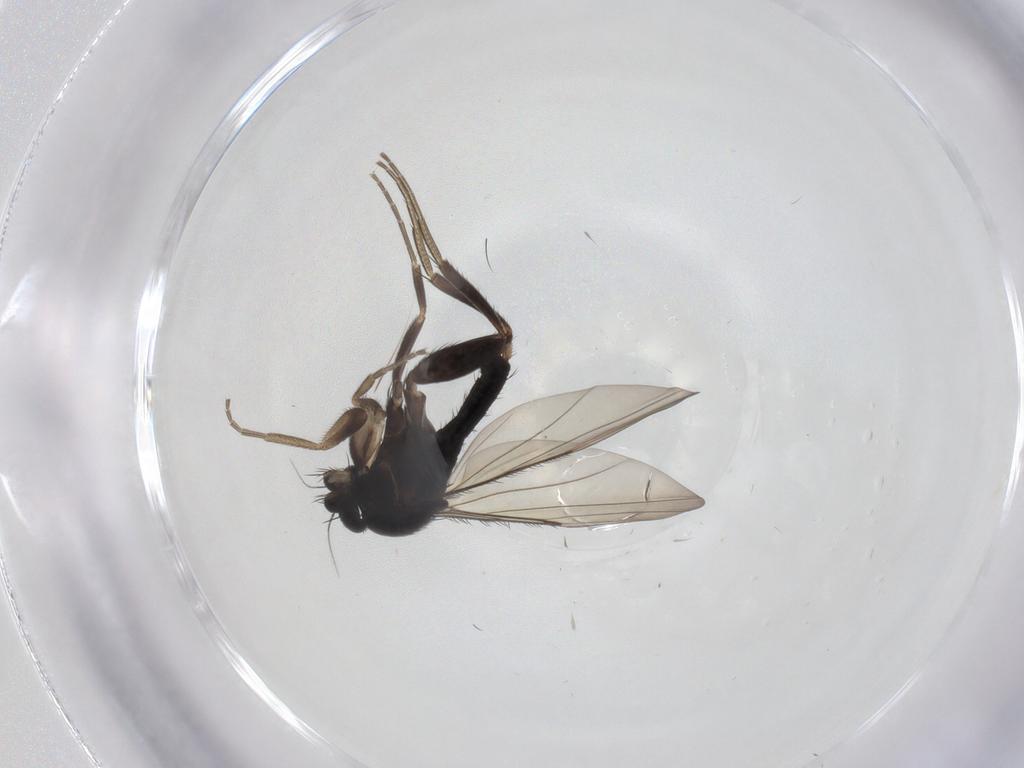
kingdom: Animalia
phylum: Arthropoda
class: Insecta
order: Diptera
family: Phoridae
